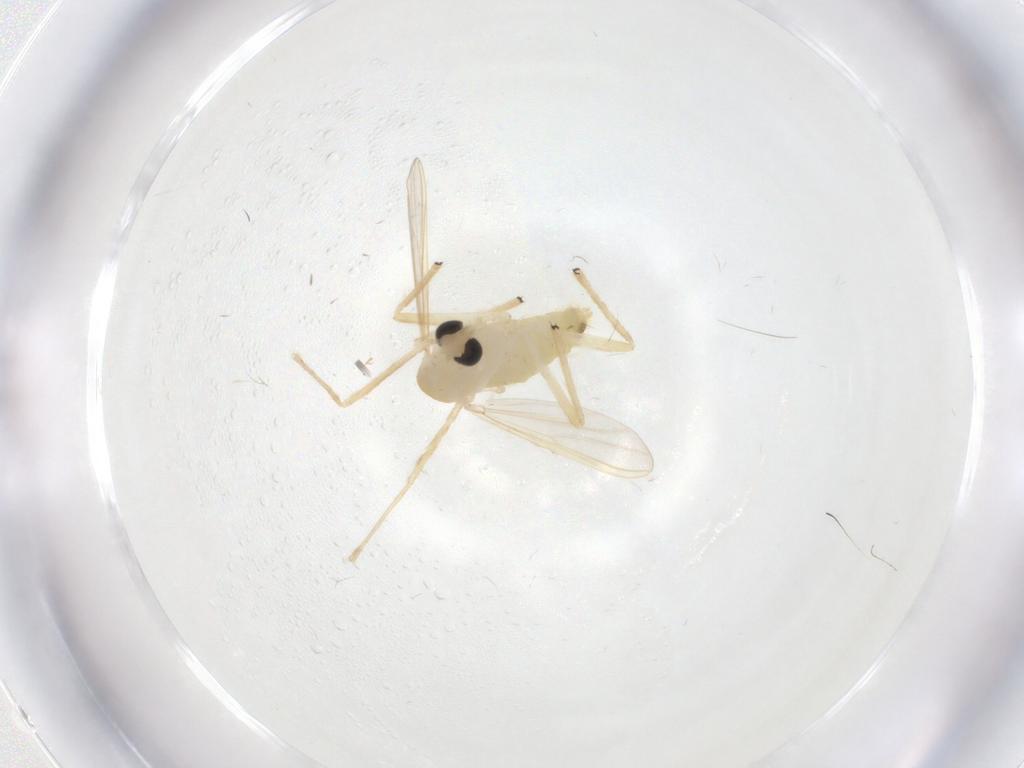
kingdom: Animalia
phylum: Arthropoda
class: Insecta
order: Diptera
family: Chironomidae
